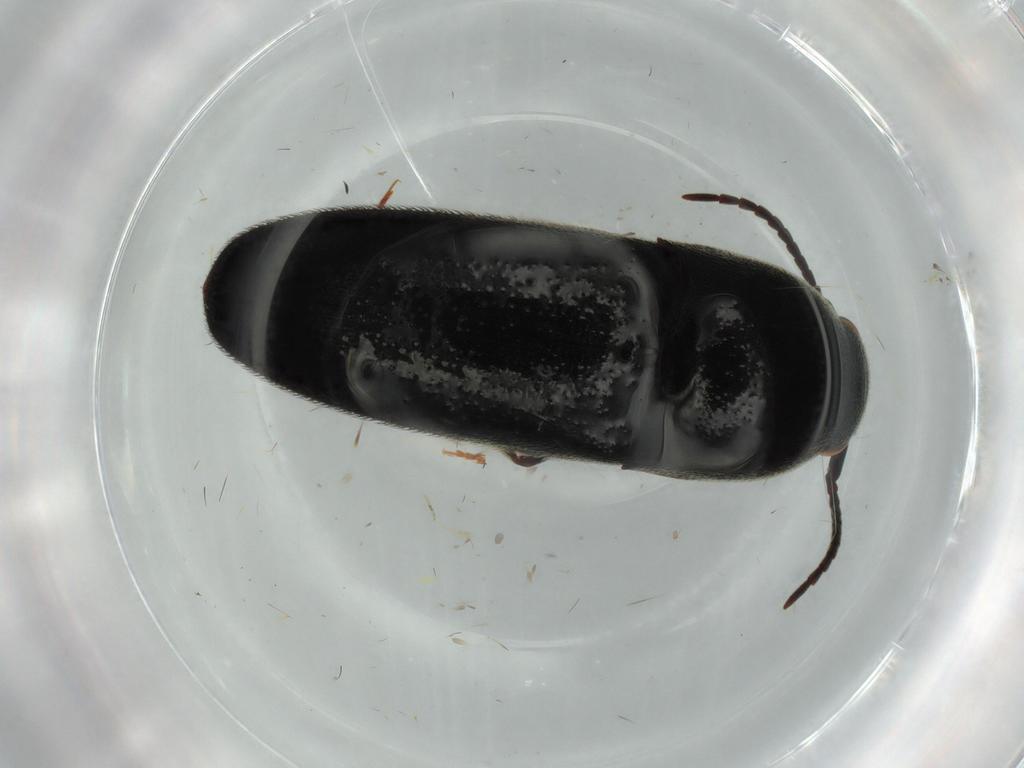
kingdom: Animalia
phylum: Arthropoda
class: Insecta
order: Coleoptera
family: Eucnemidae
